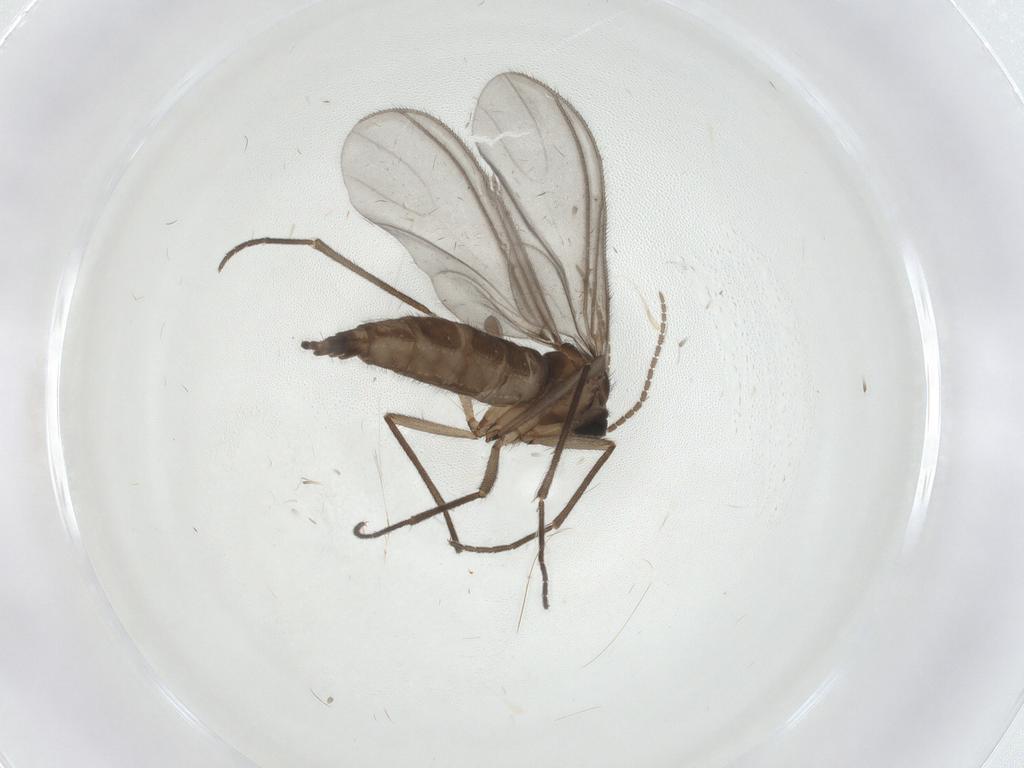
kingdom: Animalia
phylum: Arthropoda
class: Insecta
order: Diptera
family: Sciaridae
